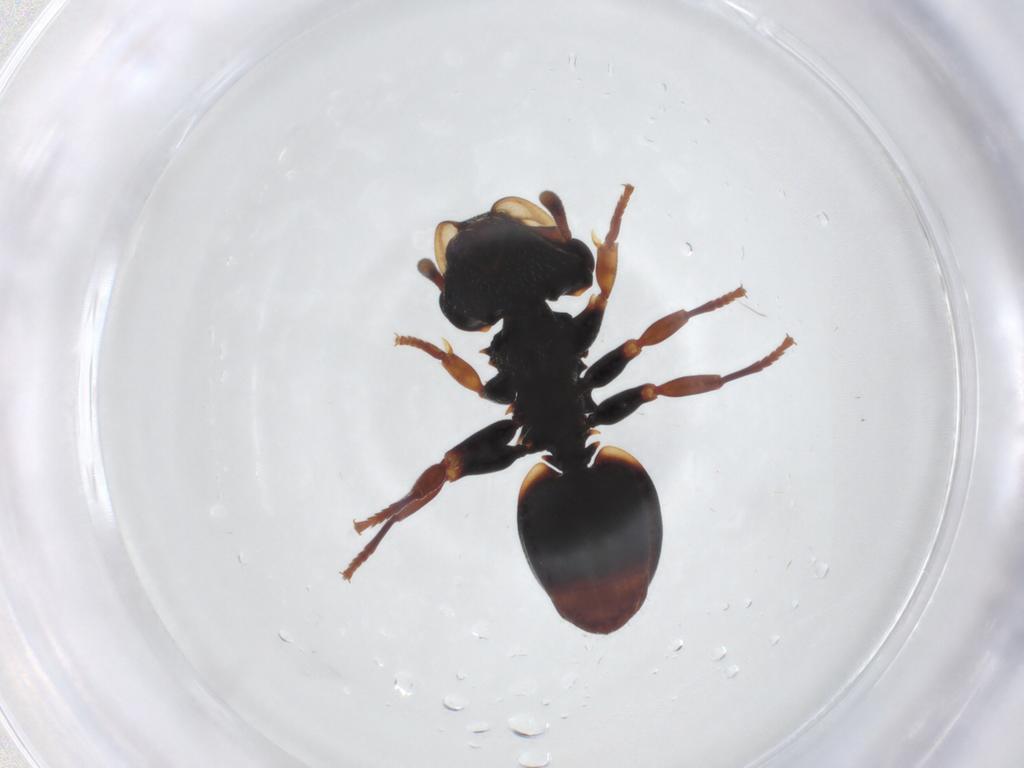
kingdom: Animalia
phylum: Arthropoda
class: Insecta
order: Hymenoptera
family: Formicidae
